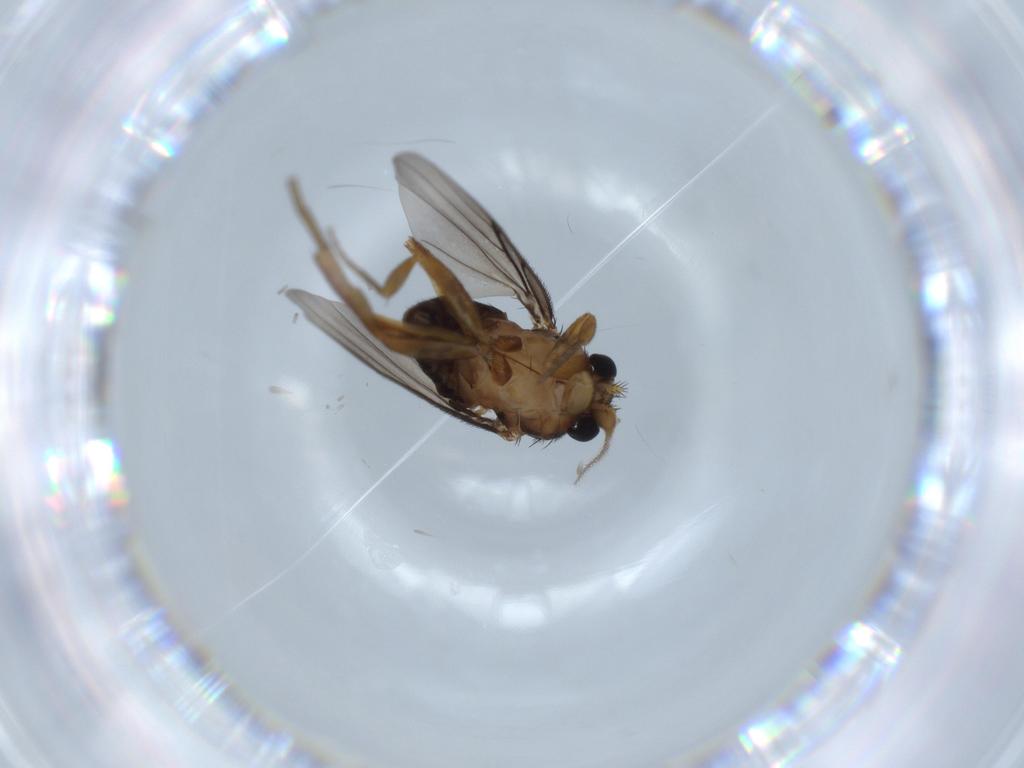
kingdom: Animalia
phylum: Arthropoda
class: Insecta
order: Diptera
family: Phoridae
